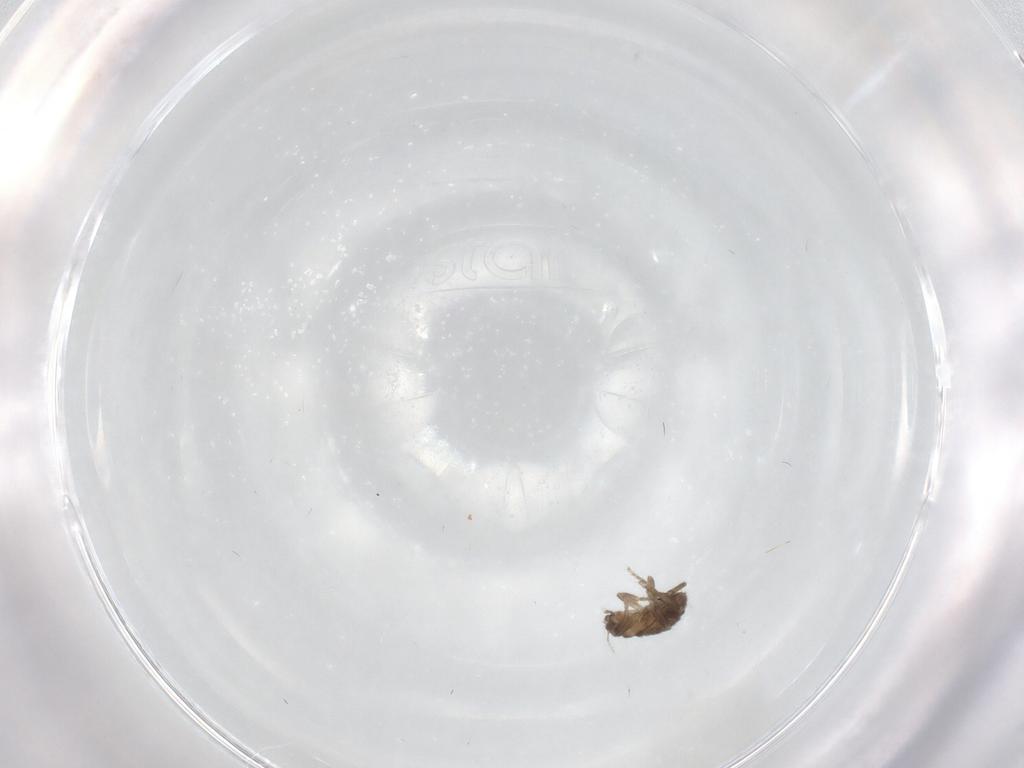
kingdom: Animalia
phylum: Arthropoda
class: Insecta
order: Diptera
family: Phoridae
